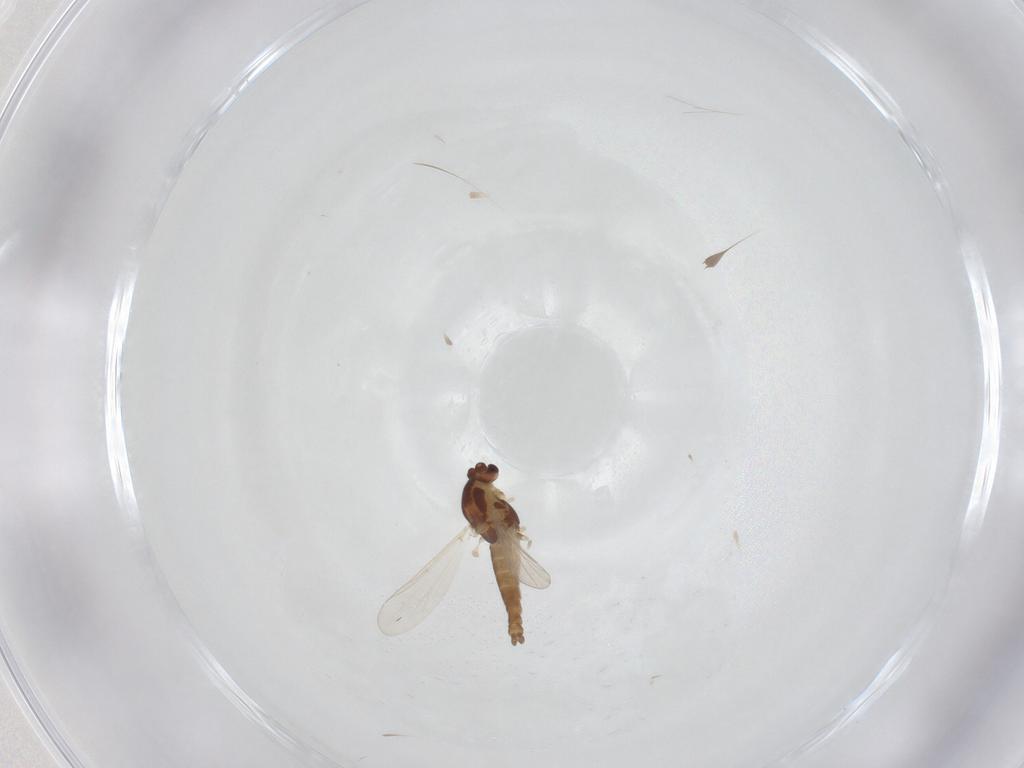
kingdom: Animalia
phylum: Arthropoda
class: Insecta
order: Diptera
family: Chironomidae
